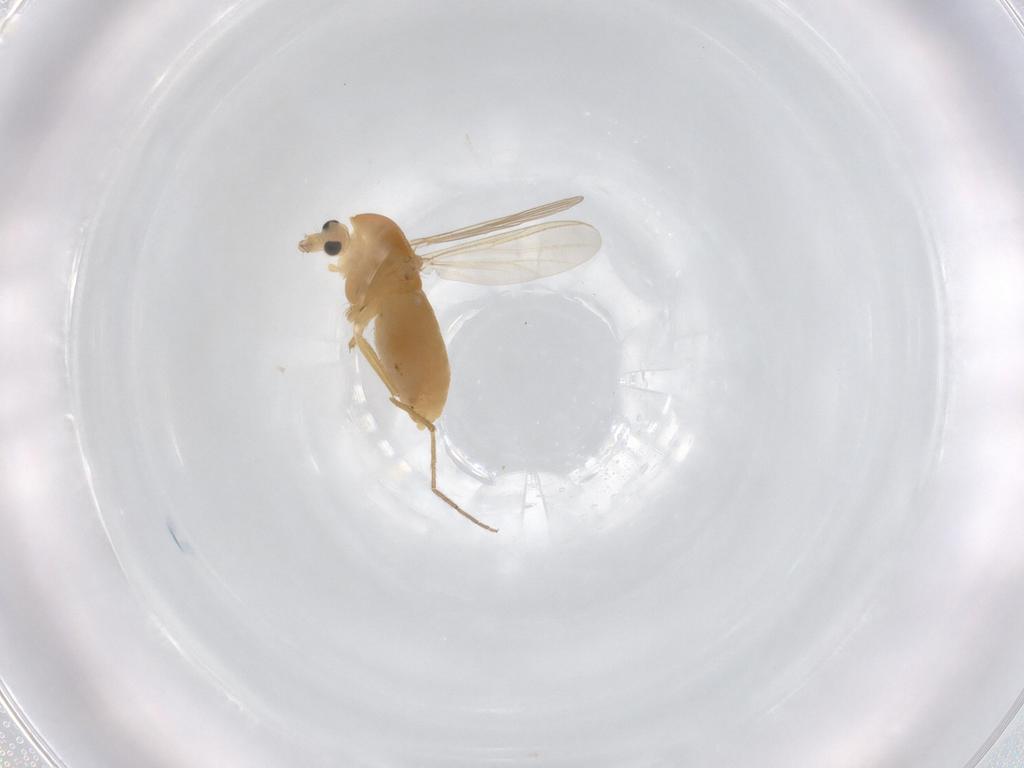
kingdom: Animalia
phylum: Arthropoda
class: Insecta
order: Diptera
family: Chironomidae
